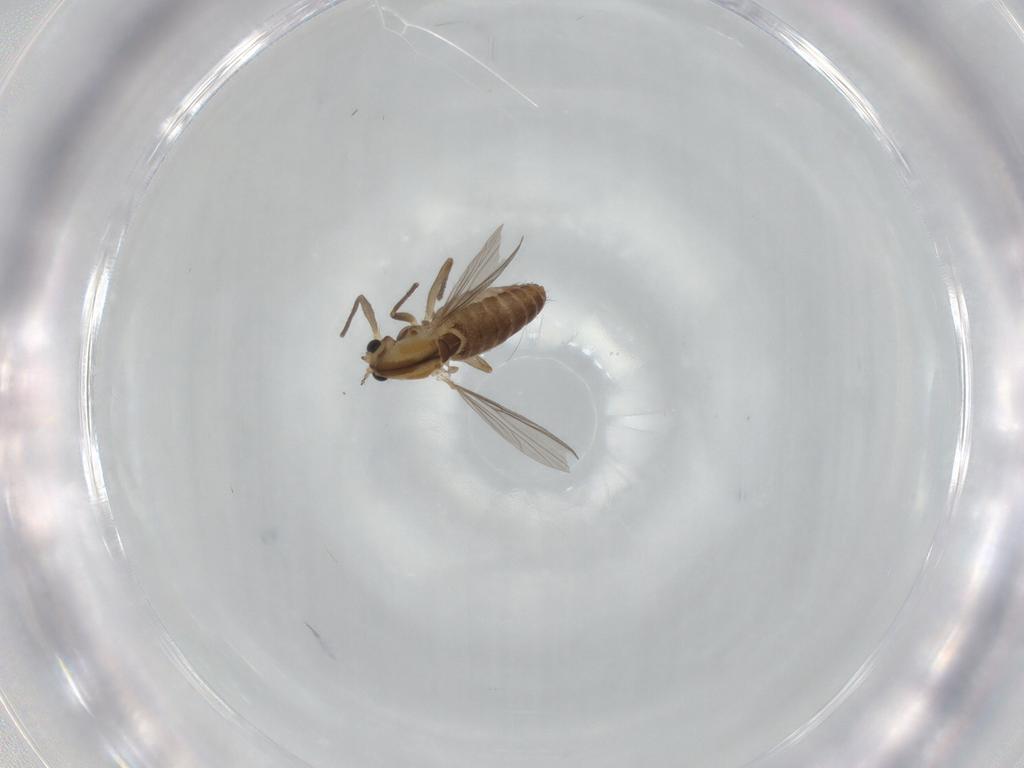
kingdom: Animalia
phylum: Arthropoda
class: Insecta
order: Diptera
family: Chironomidae
